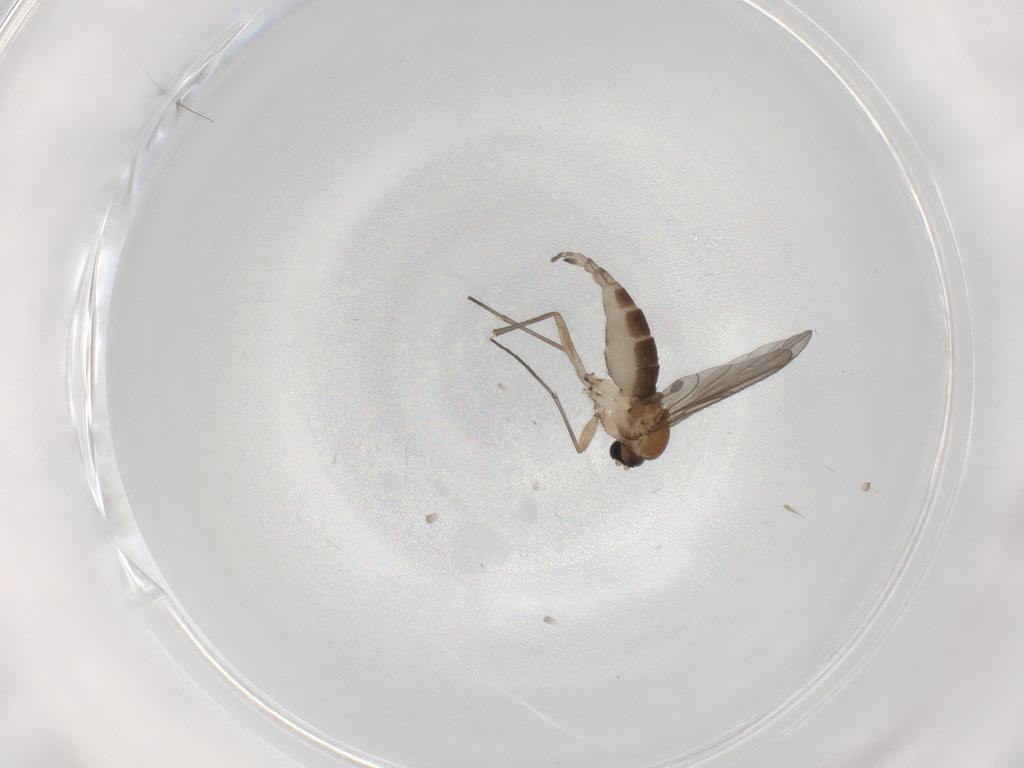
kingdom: Animalia
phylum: Arthropoda
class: Insecta
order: Diptera
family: Sciaridae
